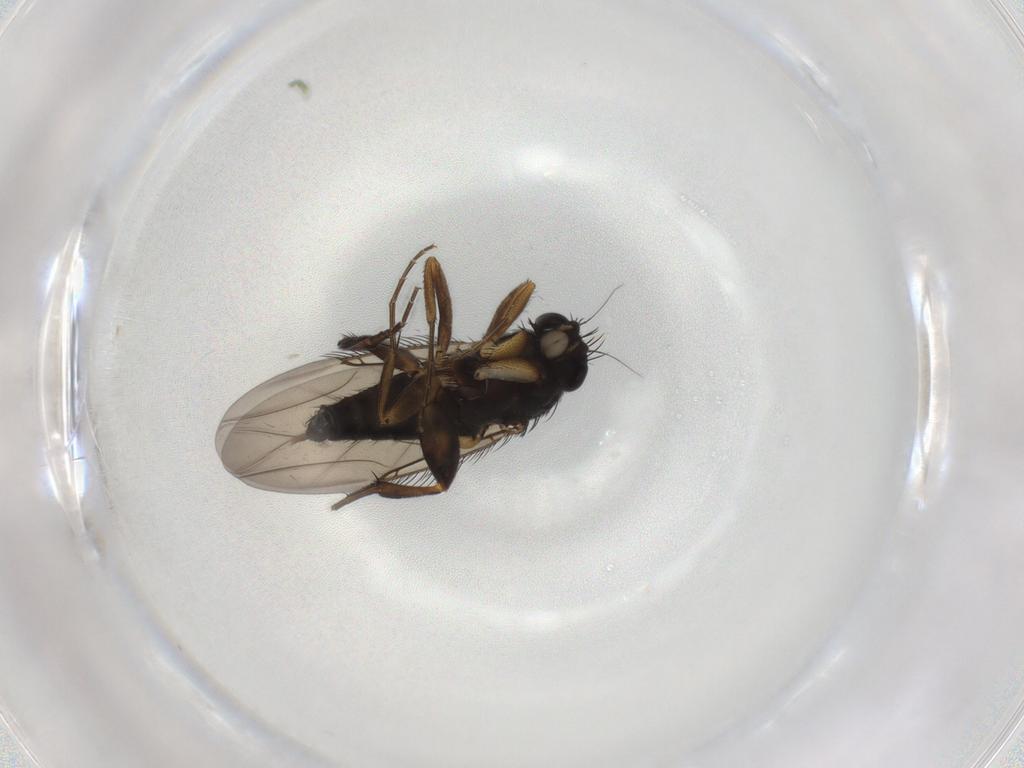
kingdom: Animalia
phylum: Arthropoda
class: Insecta
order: Diptera
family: Phoridae
